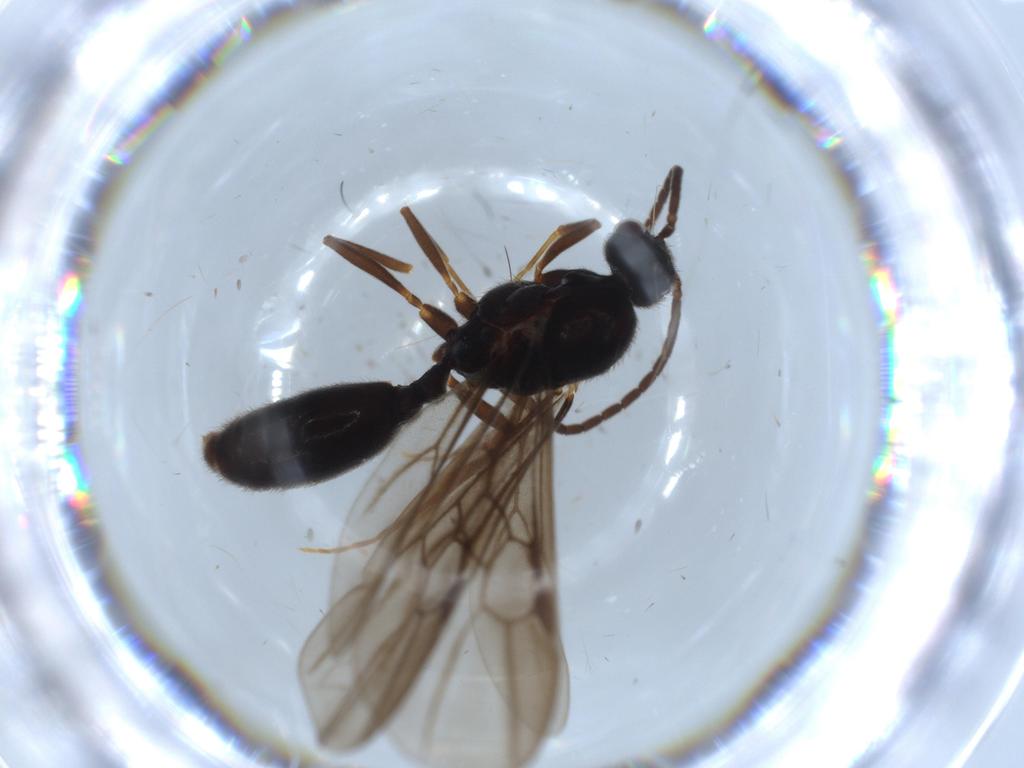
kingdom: Animalia
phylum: Arthropoda
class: Insecta
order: Hymenoptera
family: Formicidae
